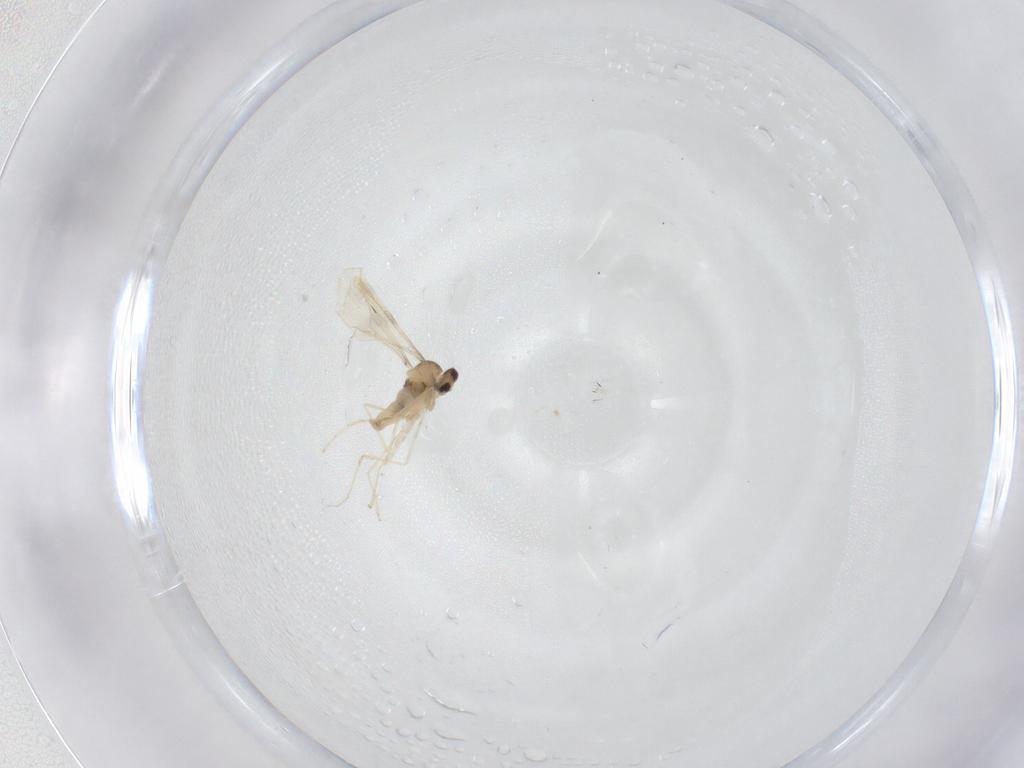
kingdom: Animalia
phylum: Arthropoda
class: Insecta
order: Diptera
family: Cecidomyiidae
